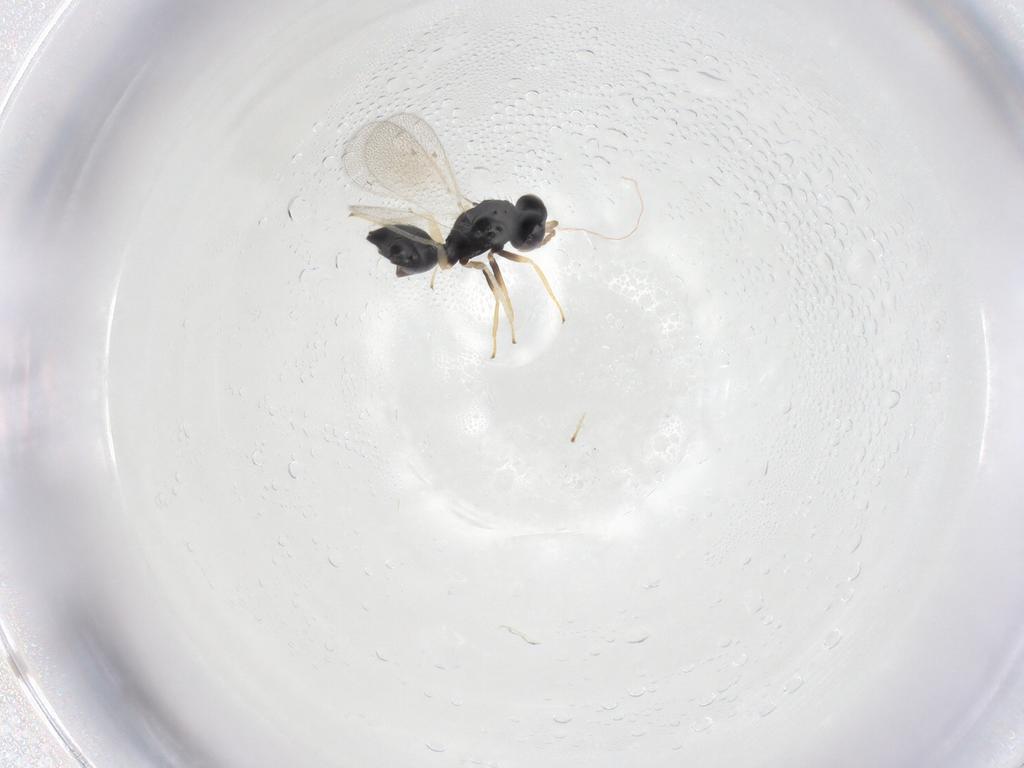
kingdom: Animalia
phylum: Arthropoda
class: Insecta
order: Hymenoptera
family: Eulophidae
